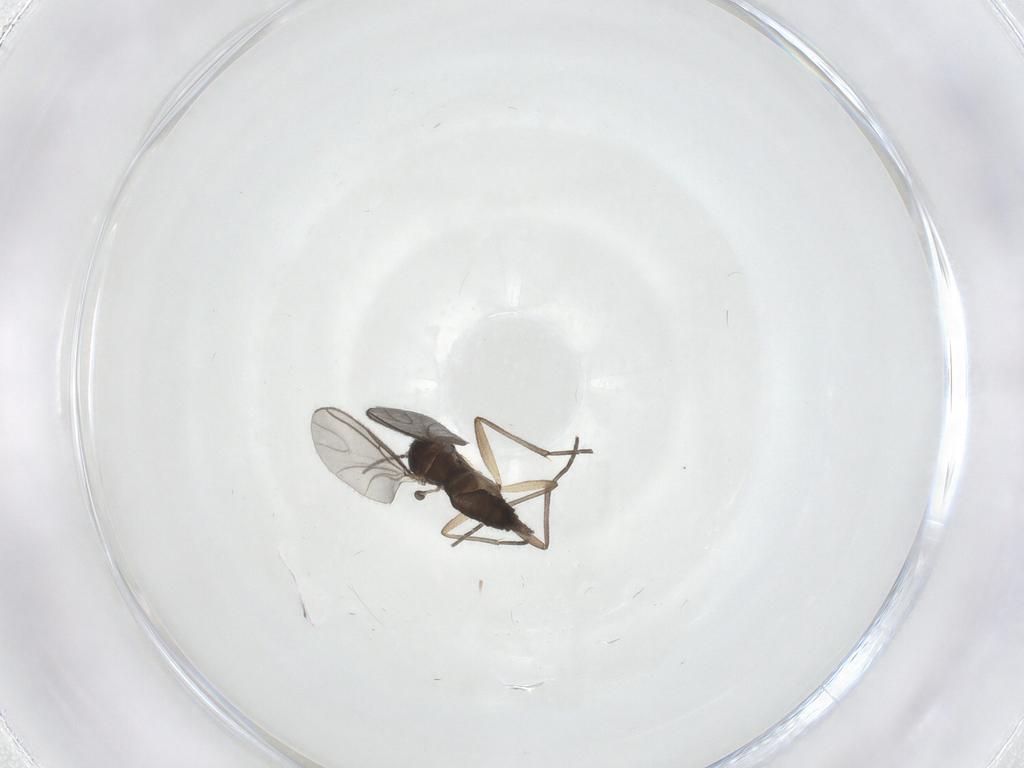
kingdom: Animalia
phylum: Arthropoda
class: Insecta
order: Diptera
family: Sciaridae
